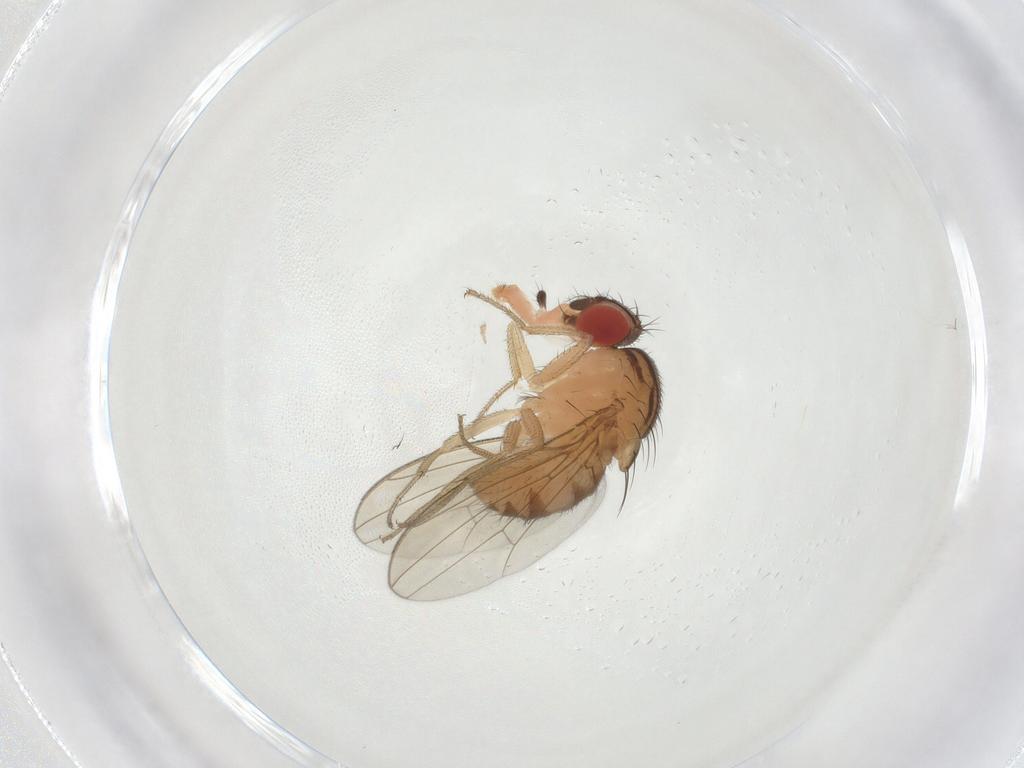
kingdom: Animalia
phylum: Arthropoda
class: Insecta
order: Diptera
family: Drosophilidae
